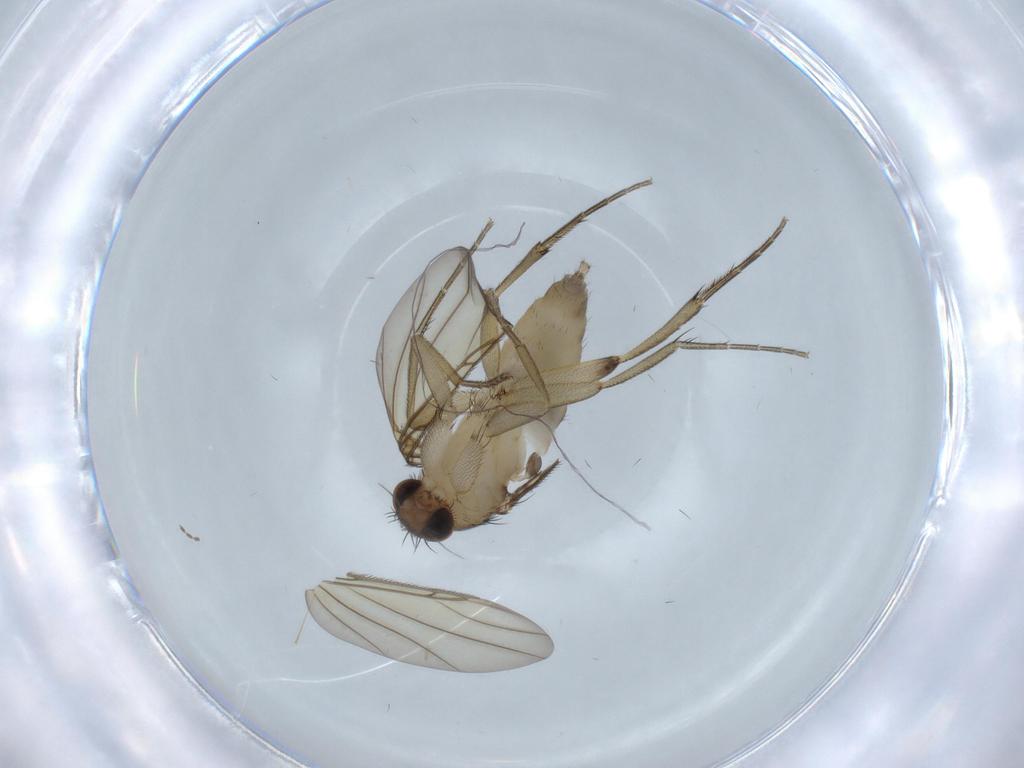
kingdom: Animalia
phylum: Arthropoda
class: Insecta
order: Diptera
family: Phoridae
